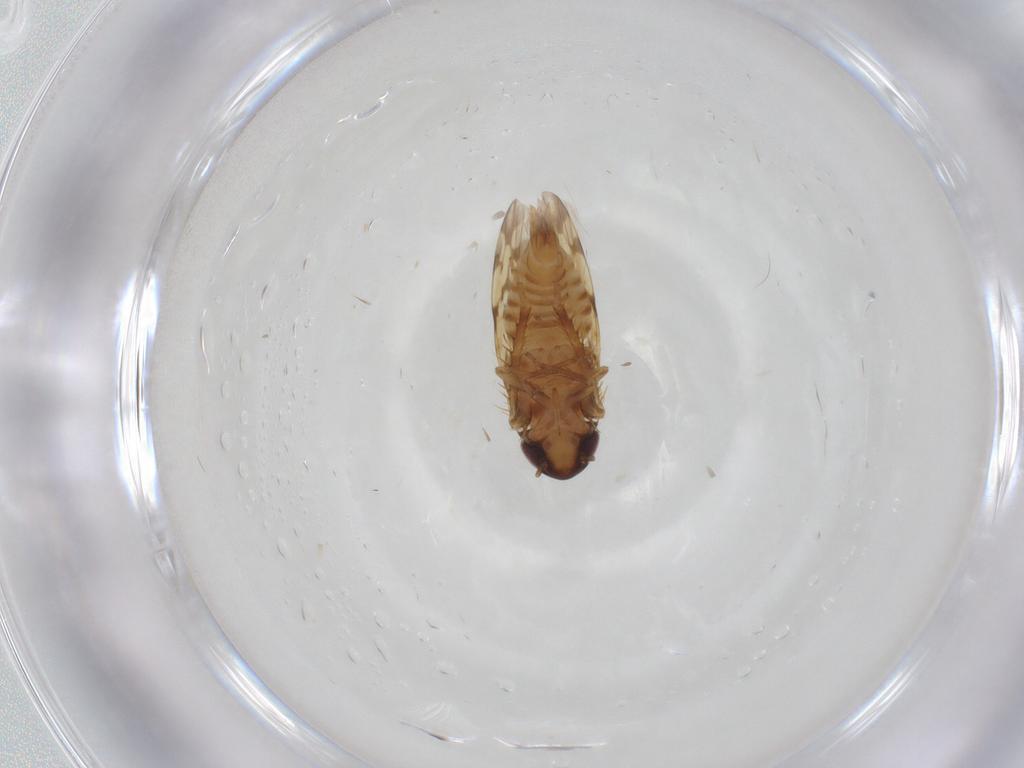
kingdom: Animalia
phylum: Arthropoda
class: Insecta
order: Hemiptera
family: Cicadellidae
